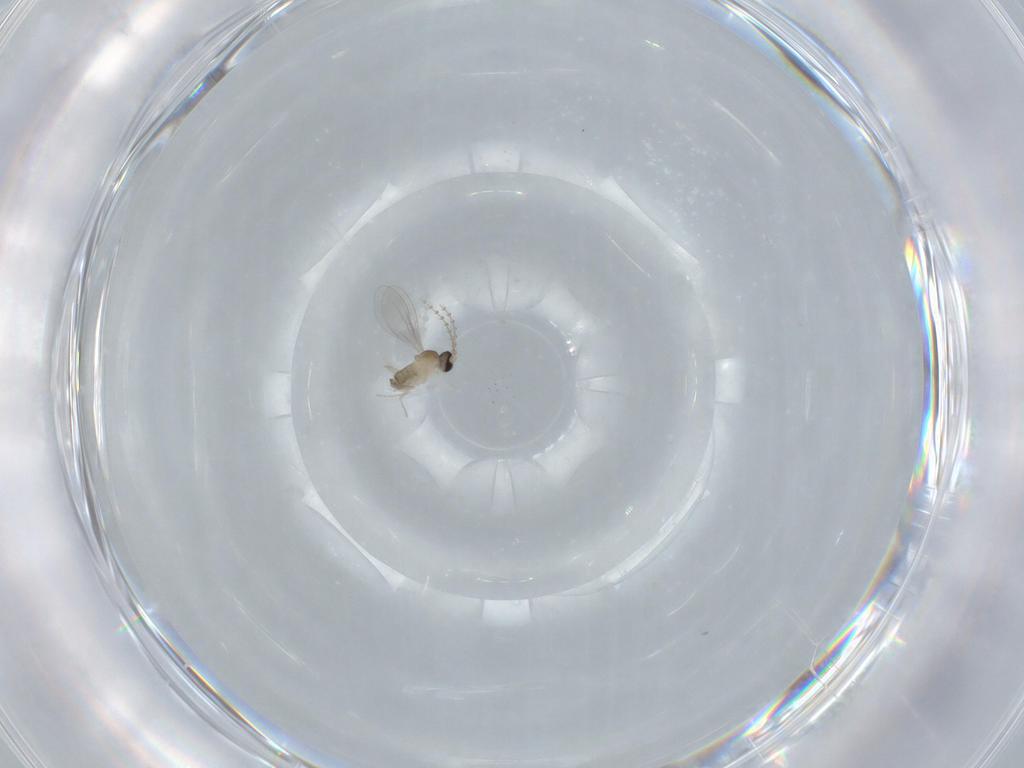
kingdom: Animalia
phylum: Arthropoda
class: Insecta
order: Diptera
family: Cecidomyiidae
